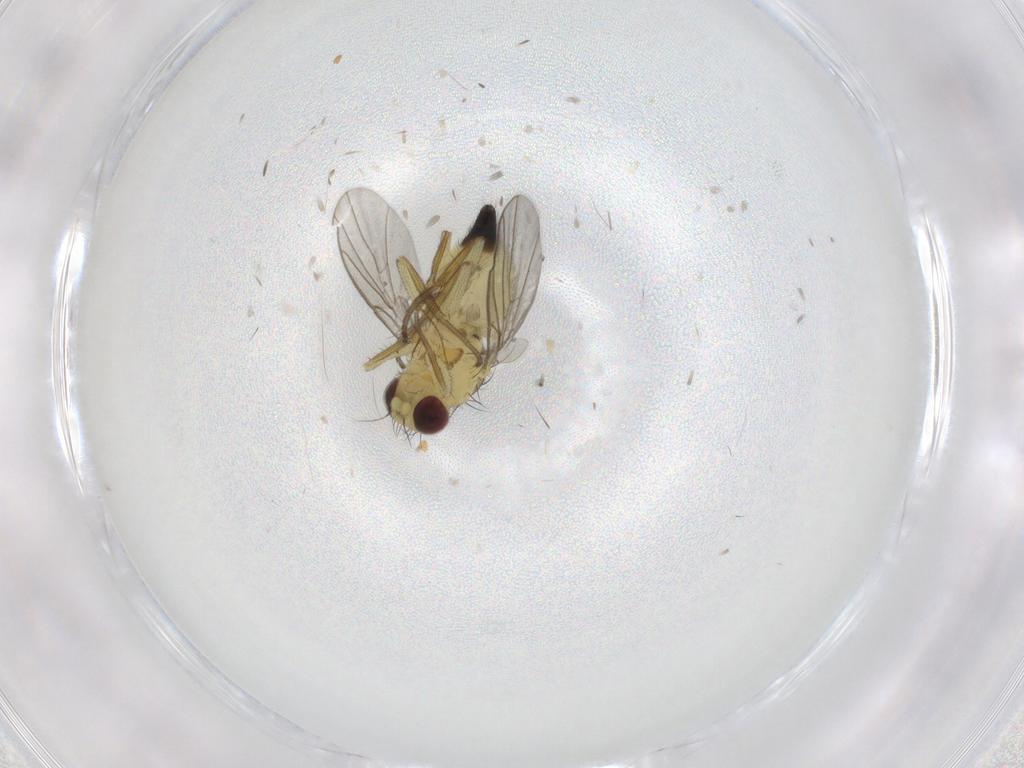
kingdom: Animalia
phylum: Arthropoda
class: Insecta
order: Diptera
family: Agromyzidae
